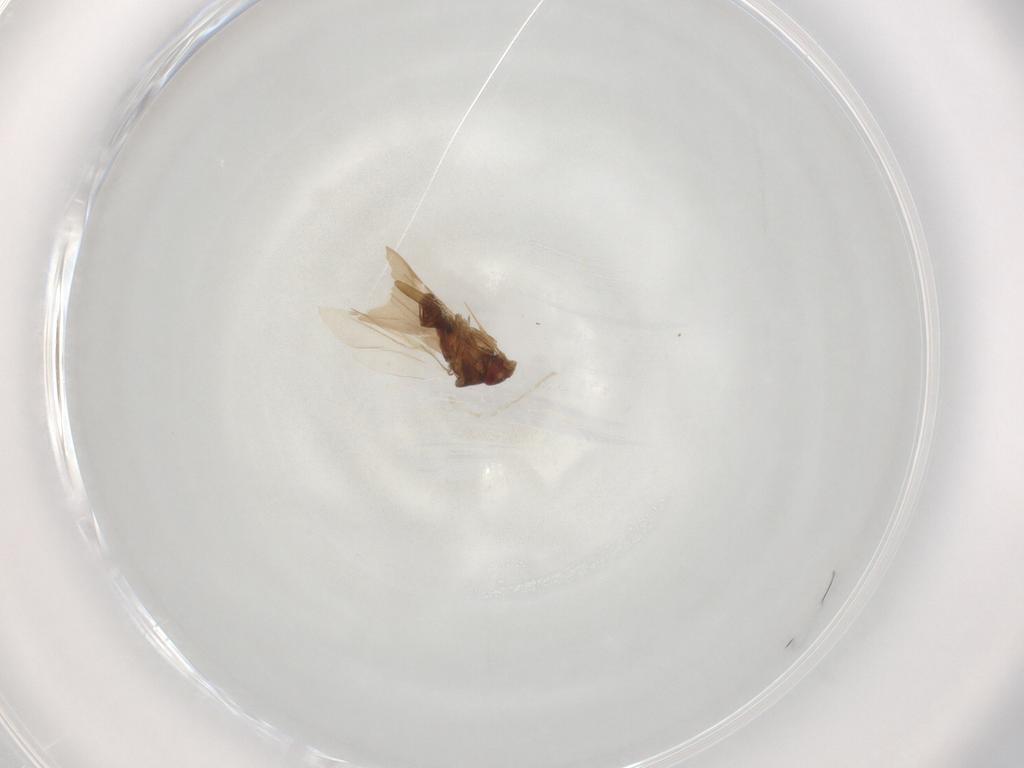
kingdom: Animalia
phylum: Arthropoda
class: Insecta
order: Hemiptera
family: Ceratocombidae
